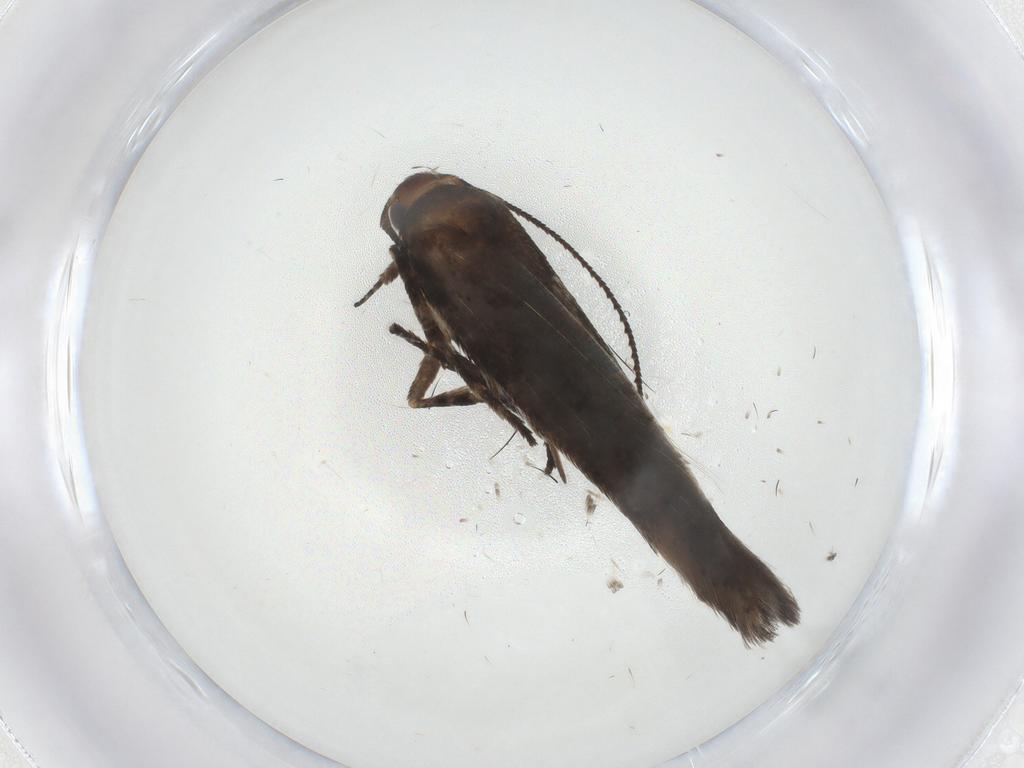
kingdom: Animalia
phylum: Arthropoda
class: Insecta
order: Lepidoptera
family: Gelechiidae
